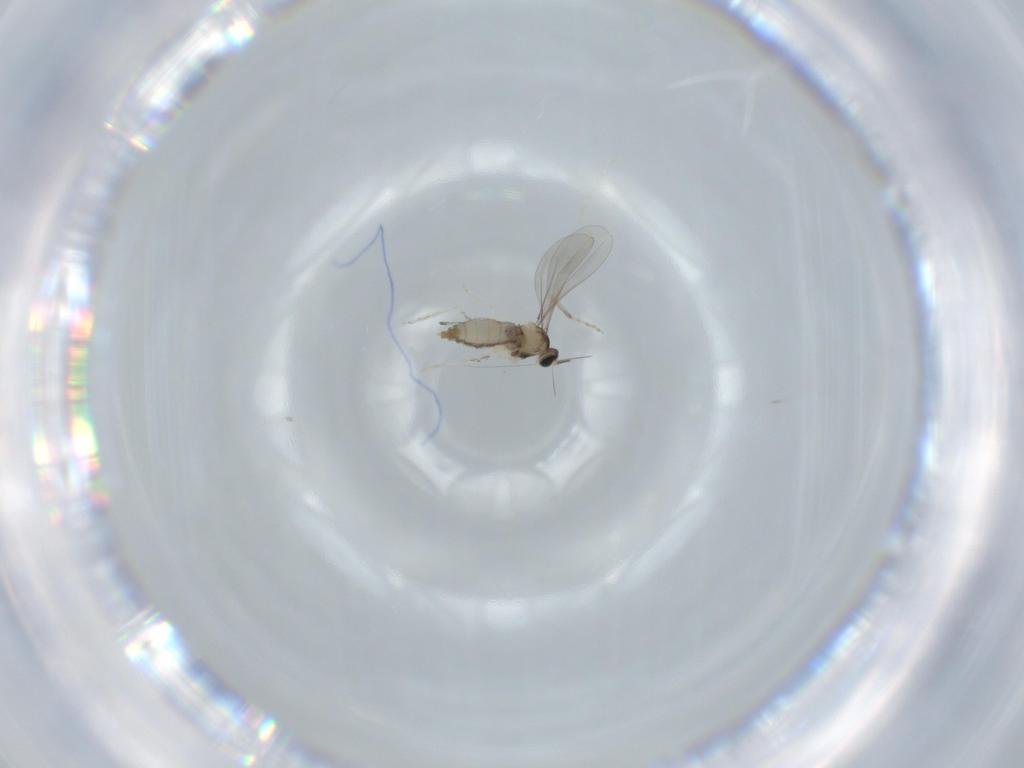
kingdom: Animalia
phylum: Arthropoda
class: Insecta
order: Diptera
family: Cecidomyiidae
